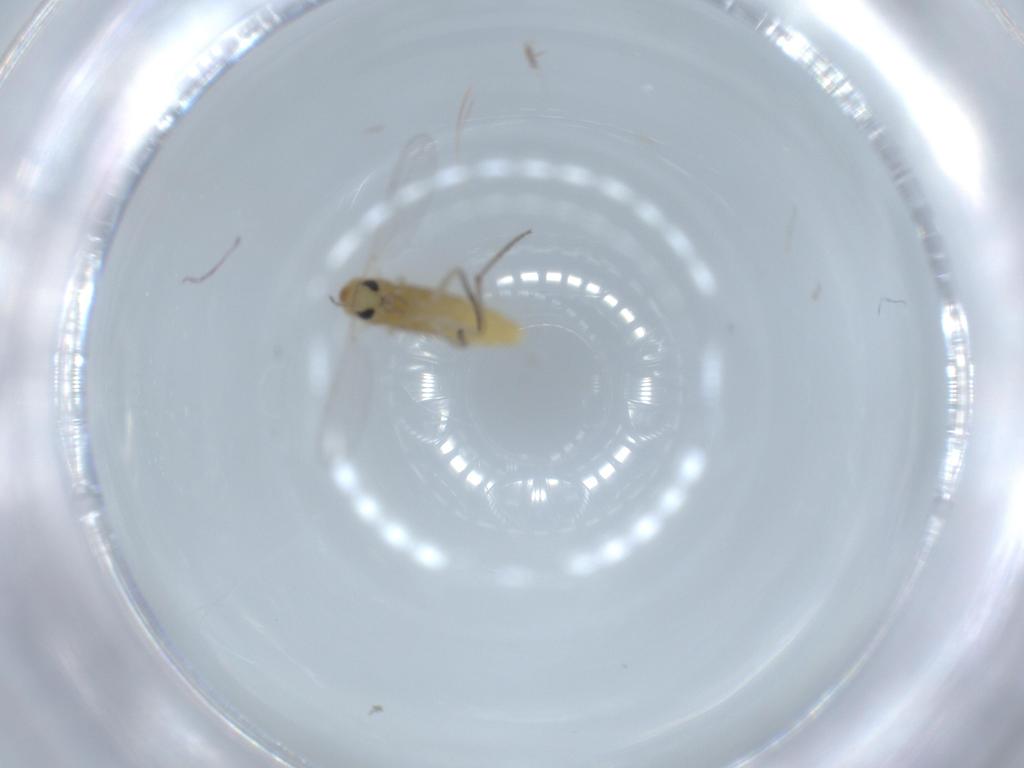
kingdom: Animalia
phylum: Arthropoda
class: Insecta
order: Diptera
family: Chironomidae
